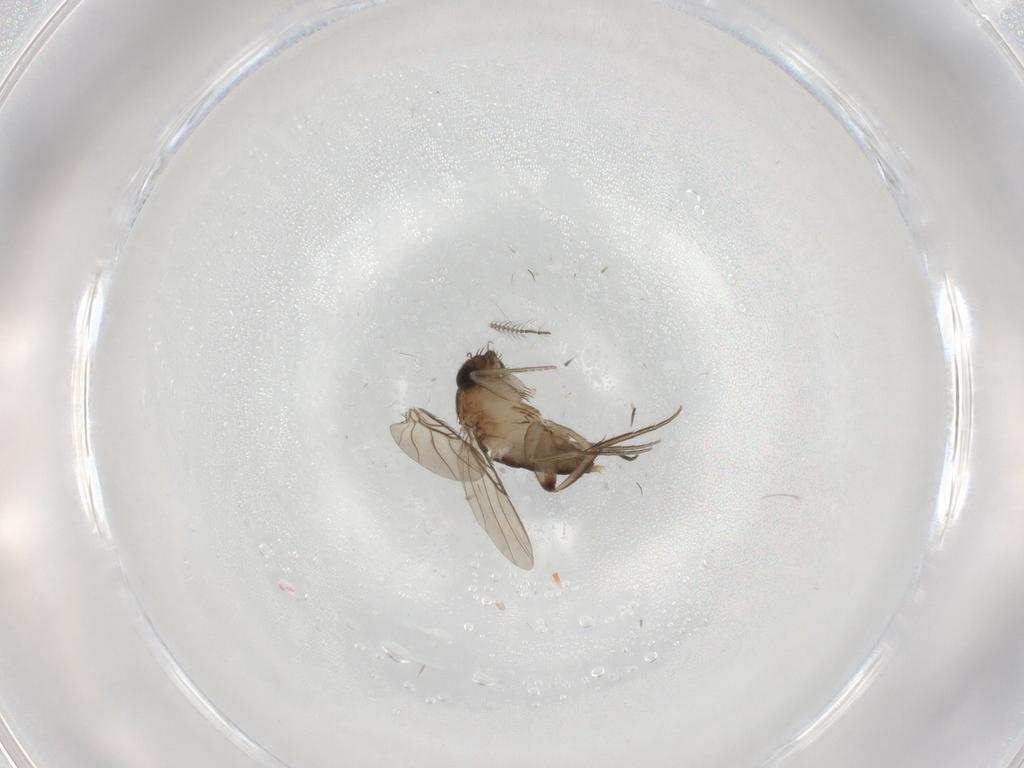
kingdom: Animalia
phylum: Arthropoda
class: Insecta
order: Diptera
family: Phoridae
